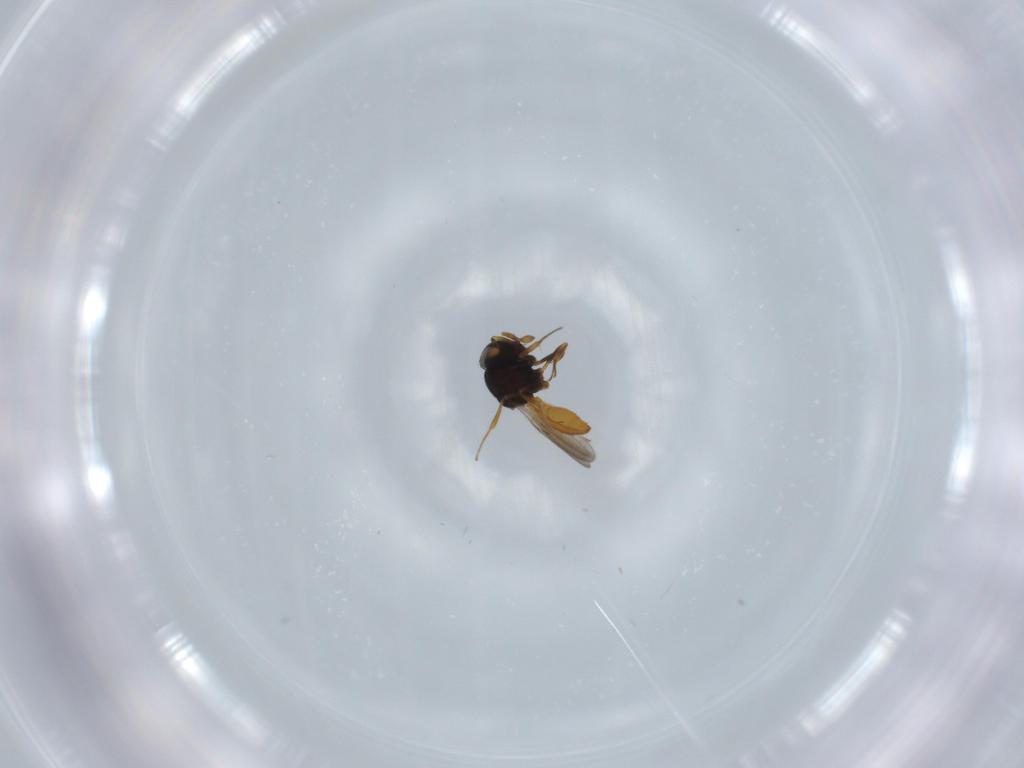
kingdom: Animalia
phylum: Arthropoda
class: Insecta
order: Hymenoptera
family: Scelionidae
